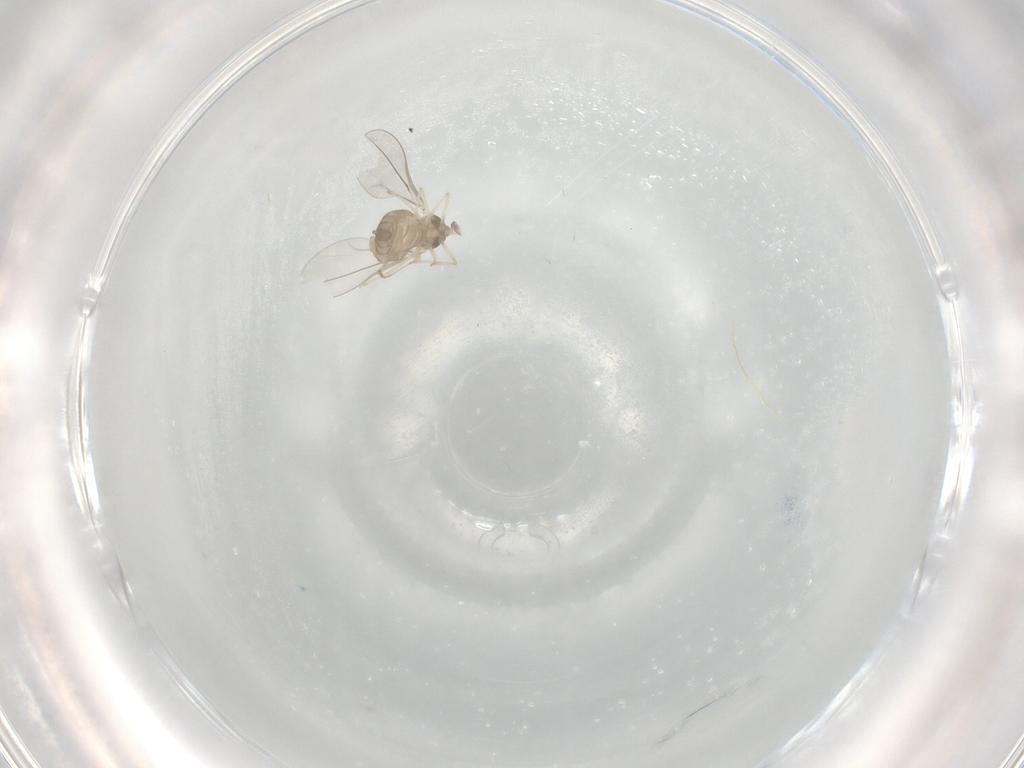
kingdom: Animalia
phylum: Arthropoda
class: Insecta
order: Diptera
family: Cecidomyiidae
